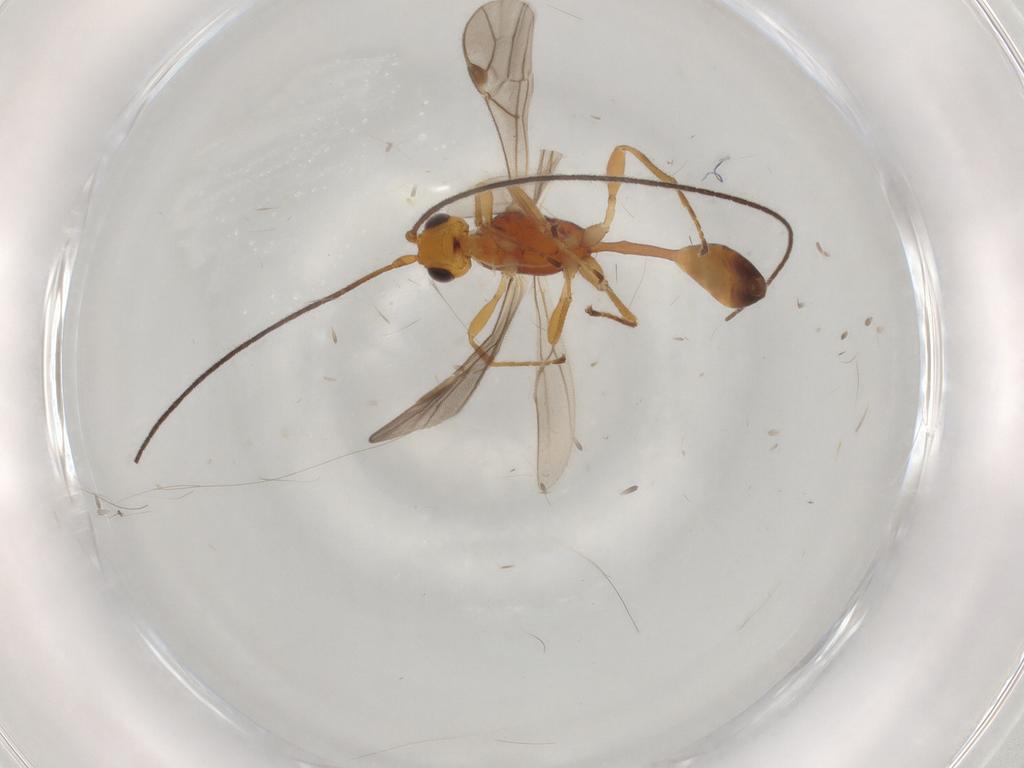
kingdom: Animalia
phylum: Arthropoda
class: Insecta
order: Hymenoptera
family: Braconidae
